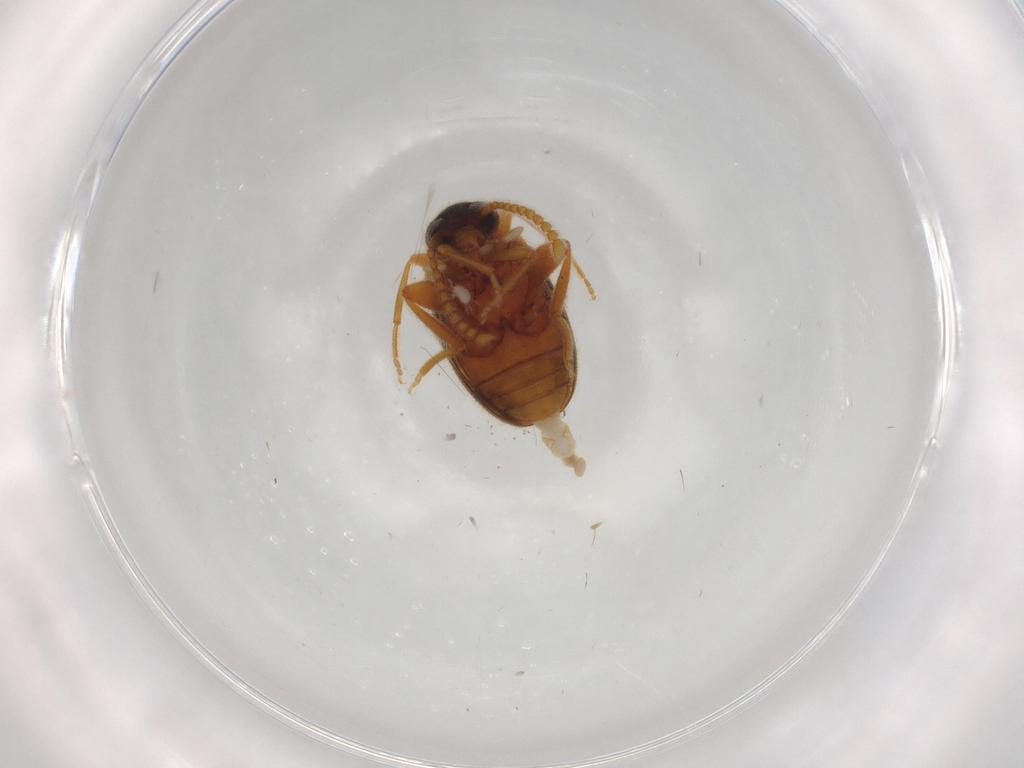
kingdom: Animalia
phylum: Arthropoda
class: Insecta
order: Coleoptera
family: Aderidae
